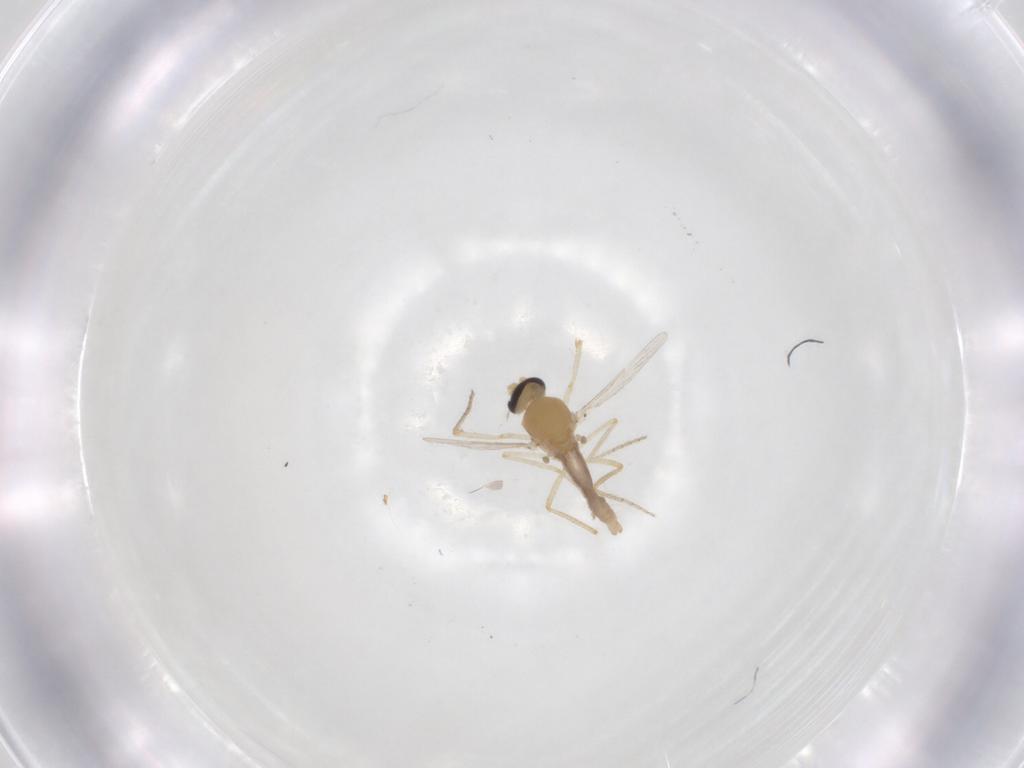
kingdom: Animalia
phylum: Arthropoda
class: Insecta
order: Diptera
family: Ceratopogonidae
